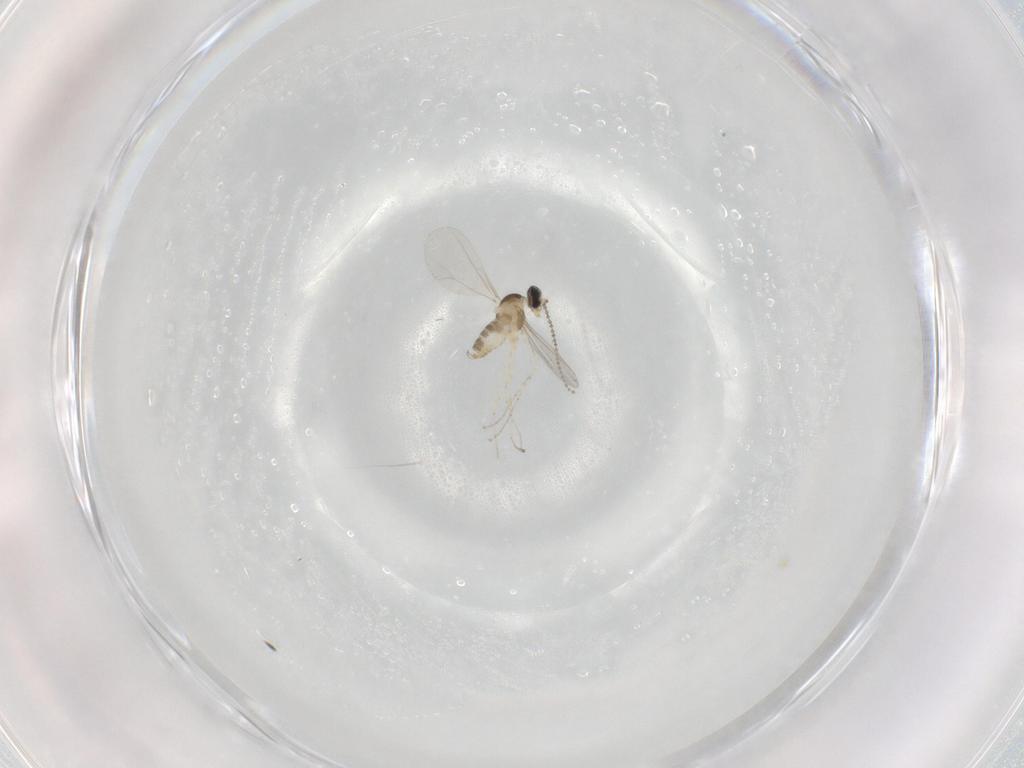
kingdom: Animalia
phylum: Arthropoda
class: Insecta
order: Diptera
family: Cecidomyiidae
